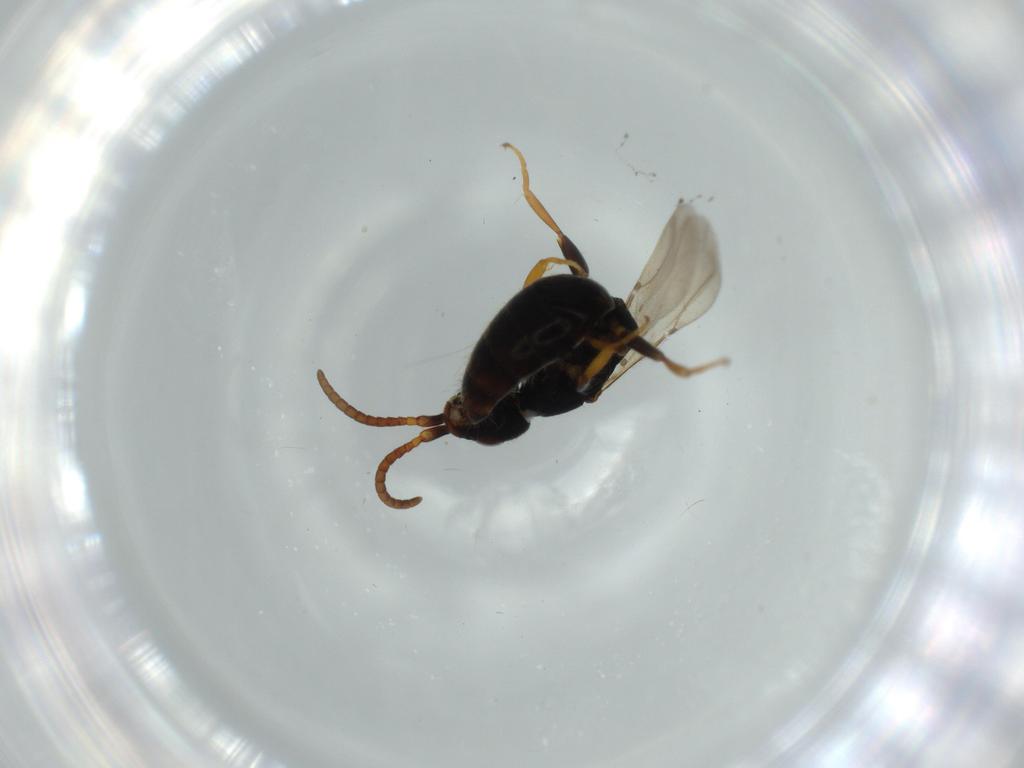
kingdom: Animalia
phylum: Arthropoda
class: Insecta
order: Hymenoptera
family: Bethylidae
